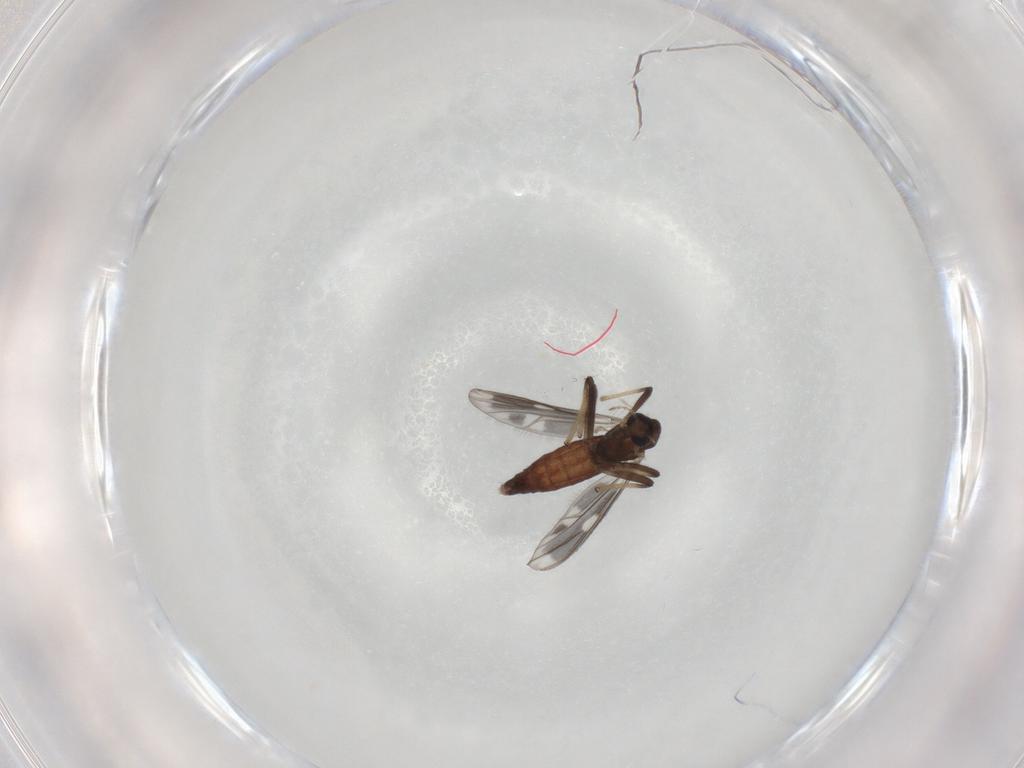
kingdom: Animalia
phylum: Arthropoda
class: Insecta
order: Diptera
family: Chironomidae
